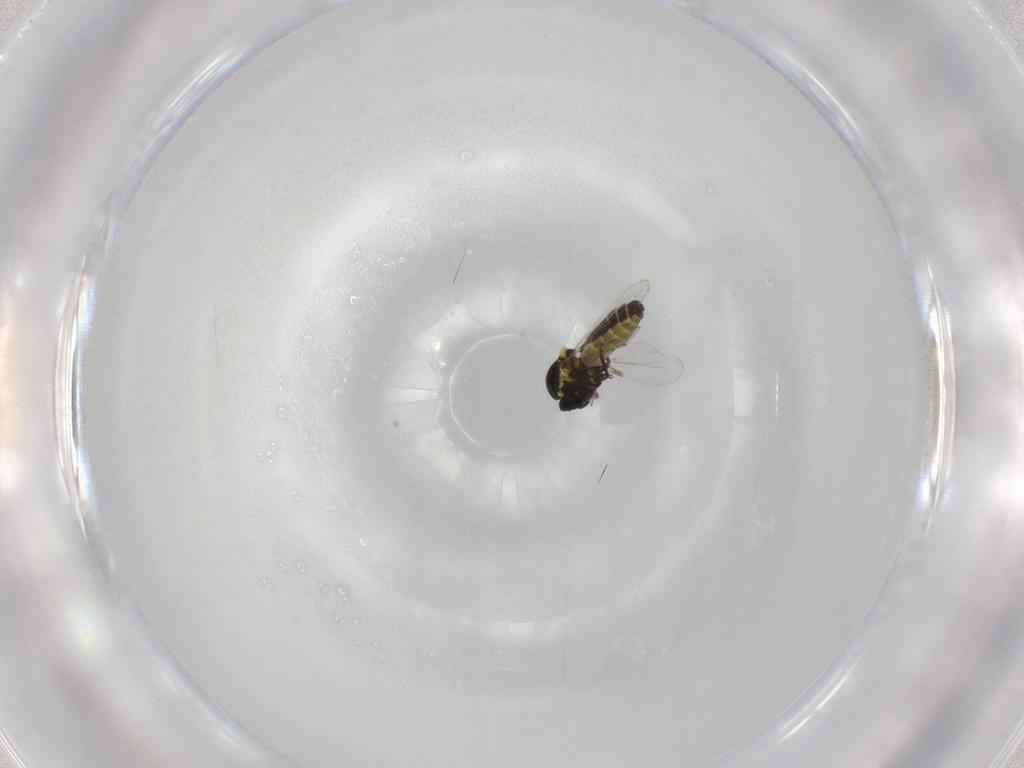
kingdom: Animalia
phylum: Arthropoda
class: Insecta
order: Diptera
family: Ceratopogonidae
